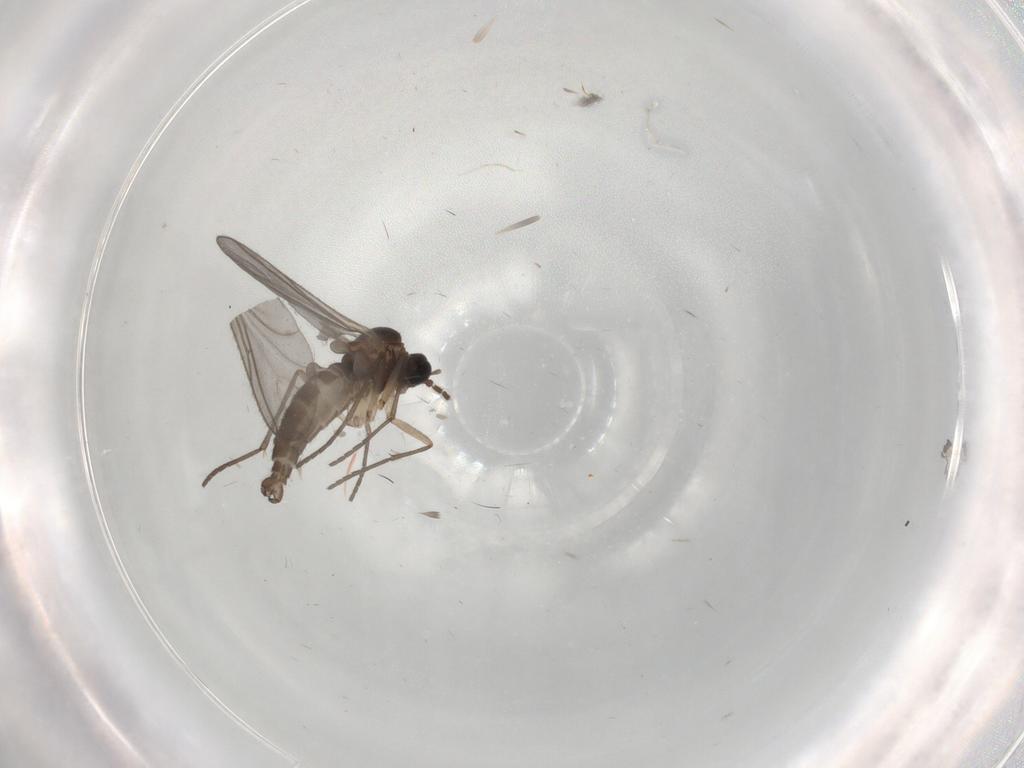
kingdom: Animalia
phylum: Arthropoda
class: Insecta
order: Diptera
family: Sciaridae
